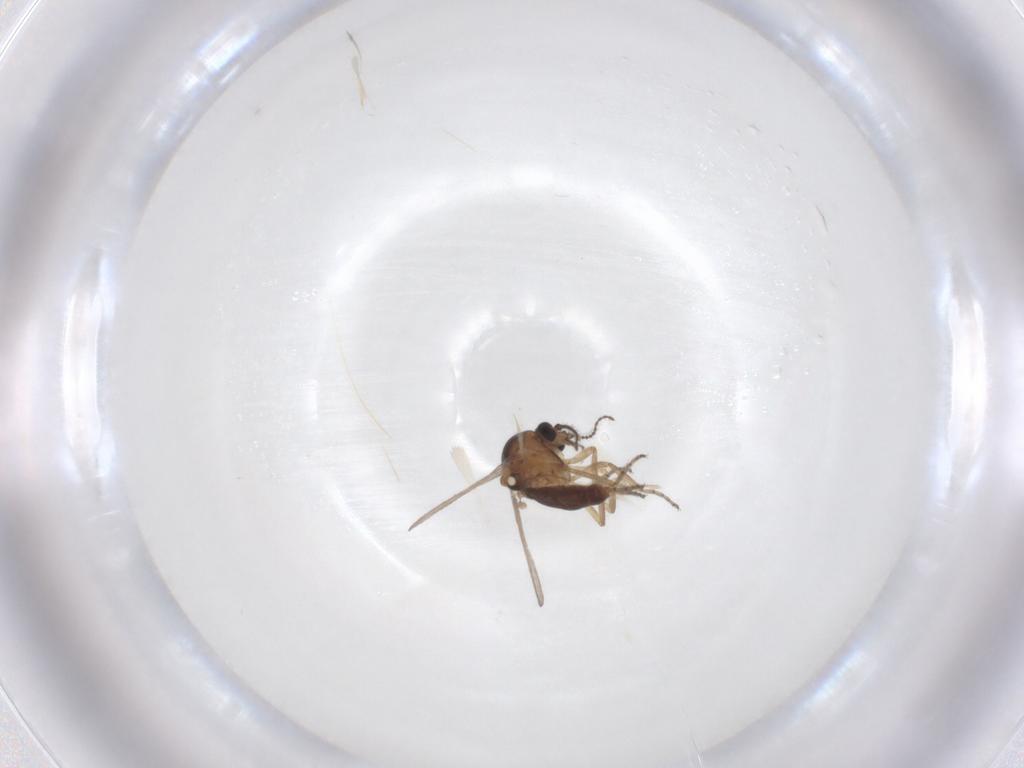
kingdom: Animalia
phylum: Arthropoda
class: Insecta
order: Diptera
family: Ceratopogonidae
